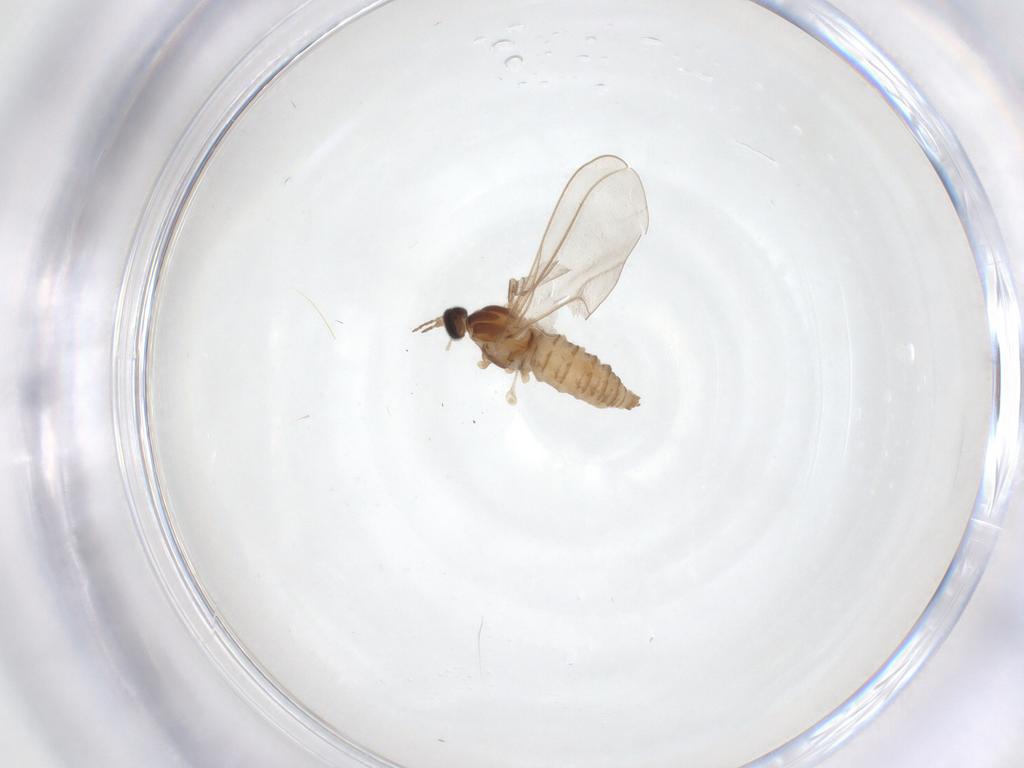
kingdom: Animalia
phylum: Arthropoda
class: Insecta
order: Diptera
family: Cecidomyiidae
